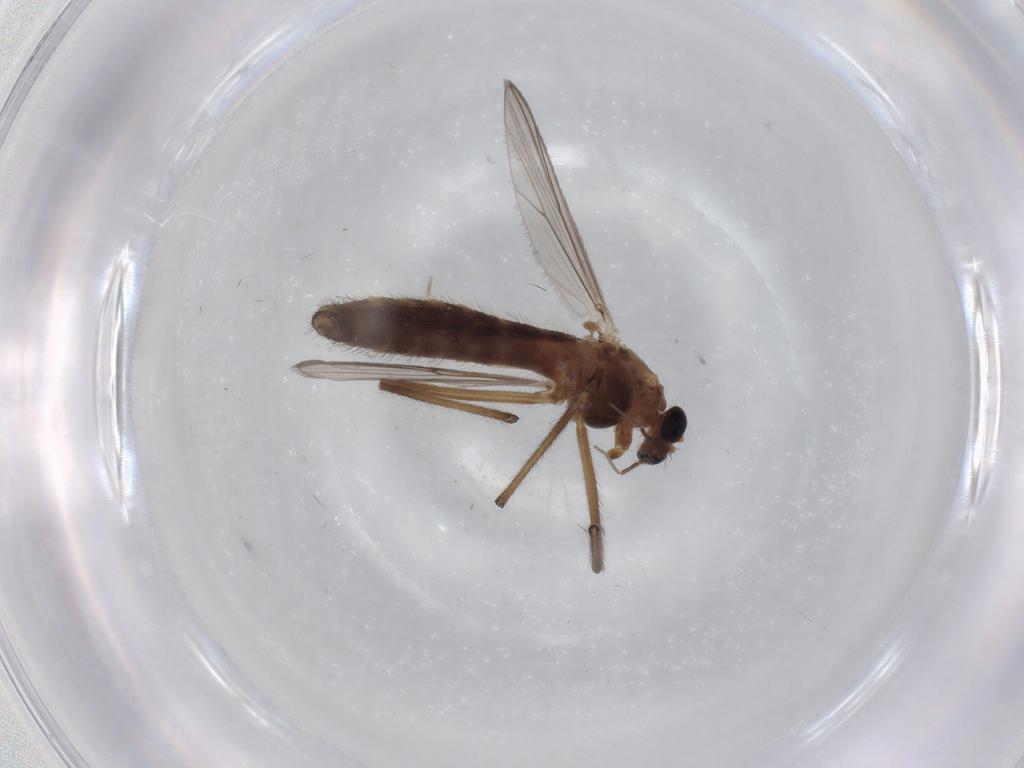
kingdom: Animalia
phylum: Arthropoda
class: Insecta
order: Diptera
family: Chironomidae
